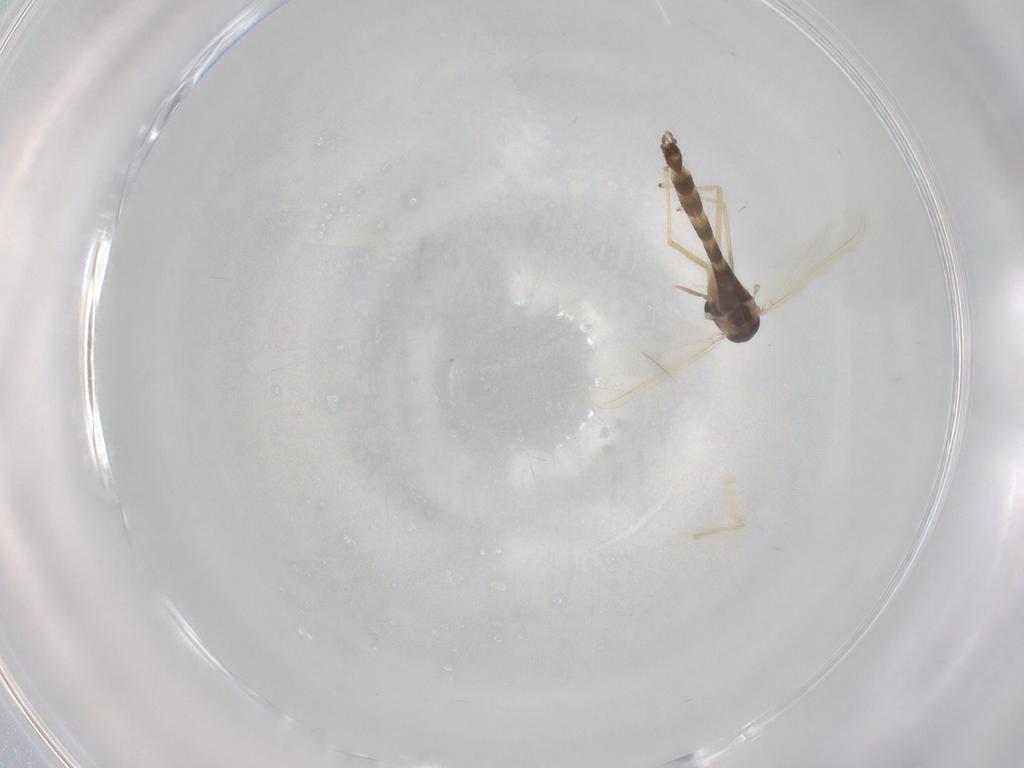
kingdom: Animalia
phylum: Arthropoda
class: Insecta
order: Diptera
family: Chironomidae
